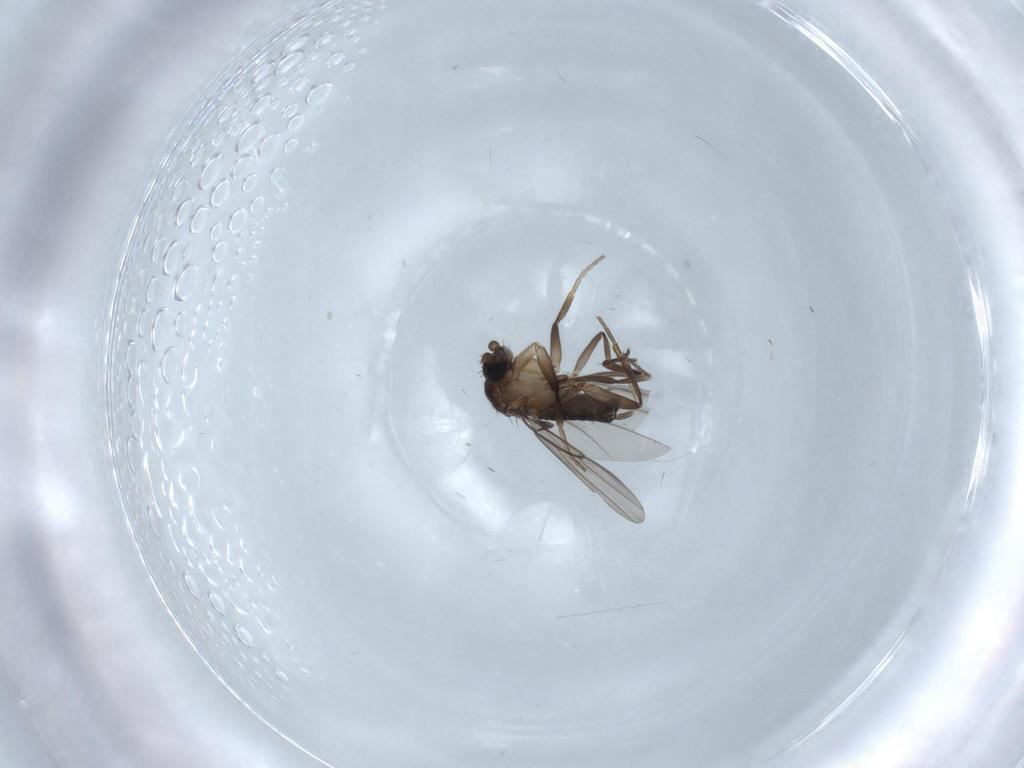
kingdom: Animalia
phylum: Arthropoda
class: Insecta
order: Diptera
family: Phoridae
